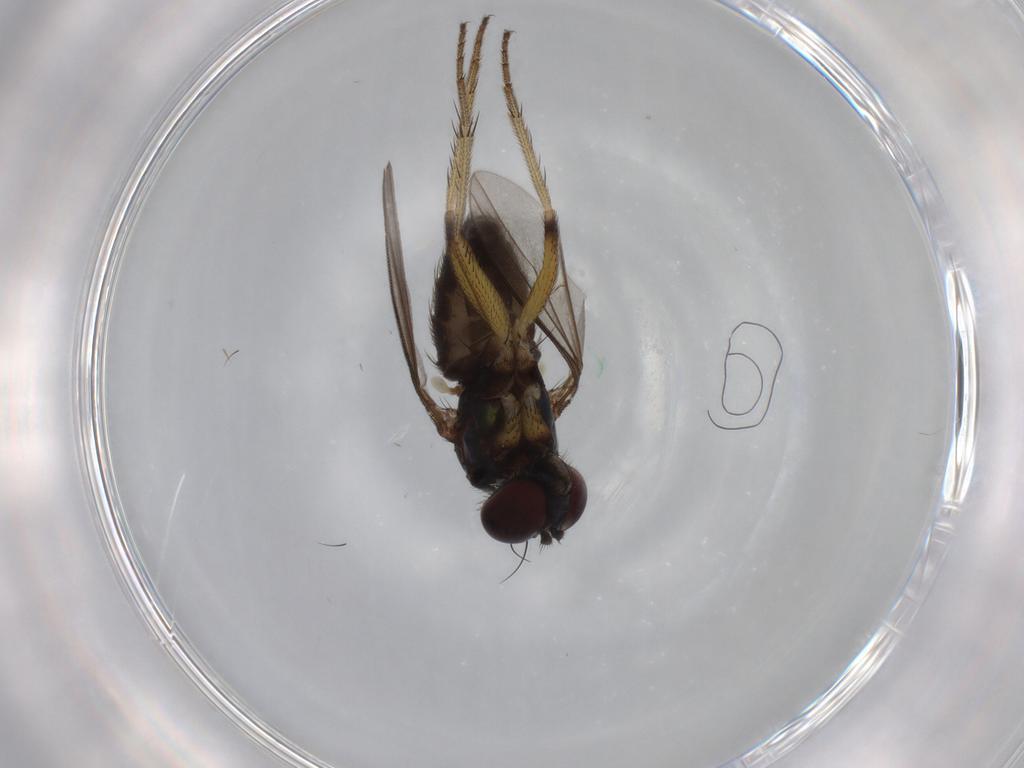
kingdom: Animalia
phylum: Arthropoda
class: Insecta
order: Diptera
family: Dolichopodidae
